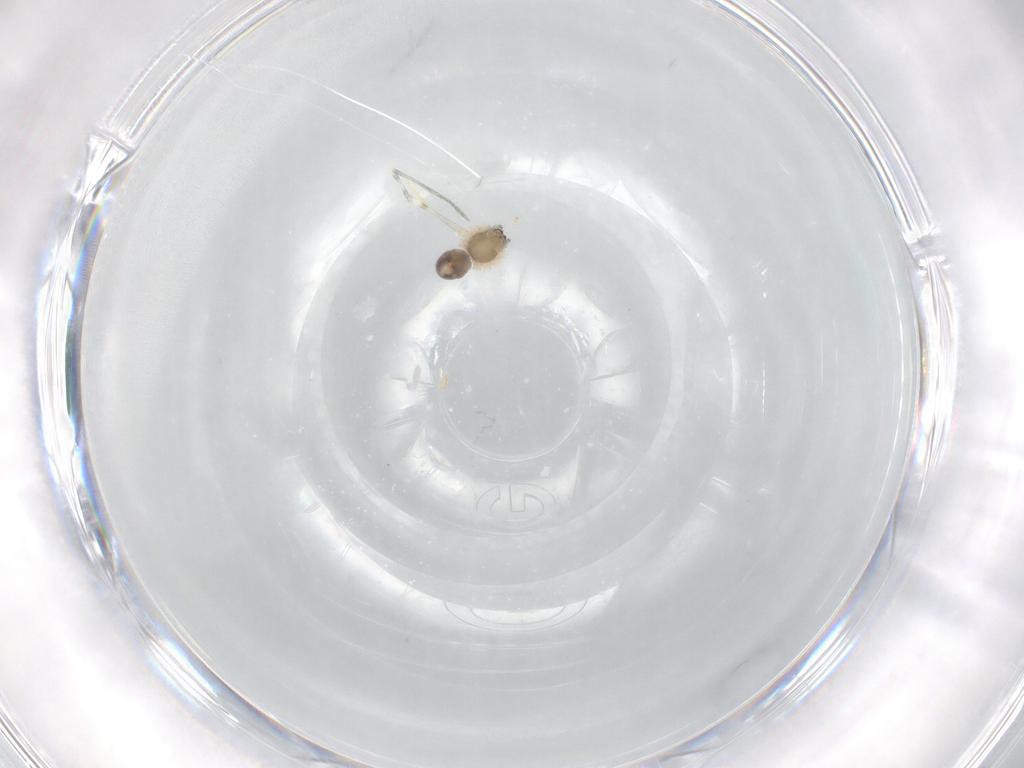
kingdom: Animalia
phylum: Arthropoda
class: Arachnida
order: Araneae
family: Pholcidae
